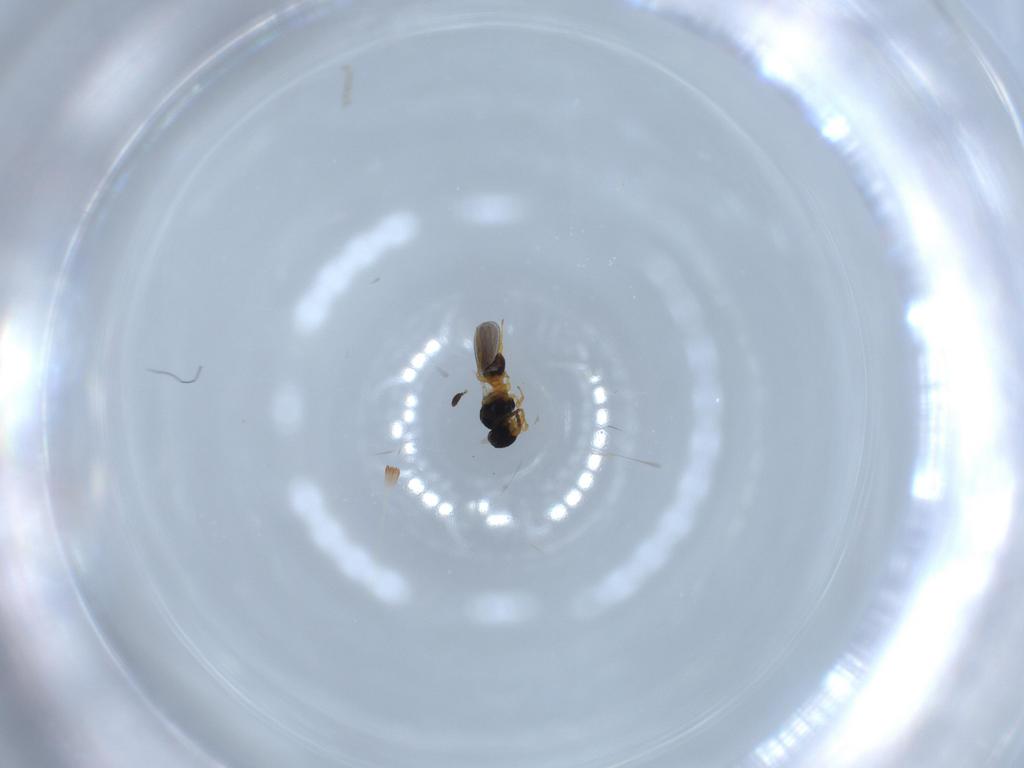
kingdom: Animalia
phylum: Arthropoda
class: Insecta
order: Hymenoptera
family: Platygastridae
